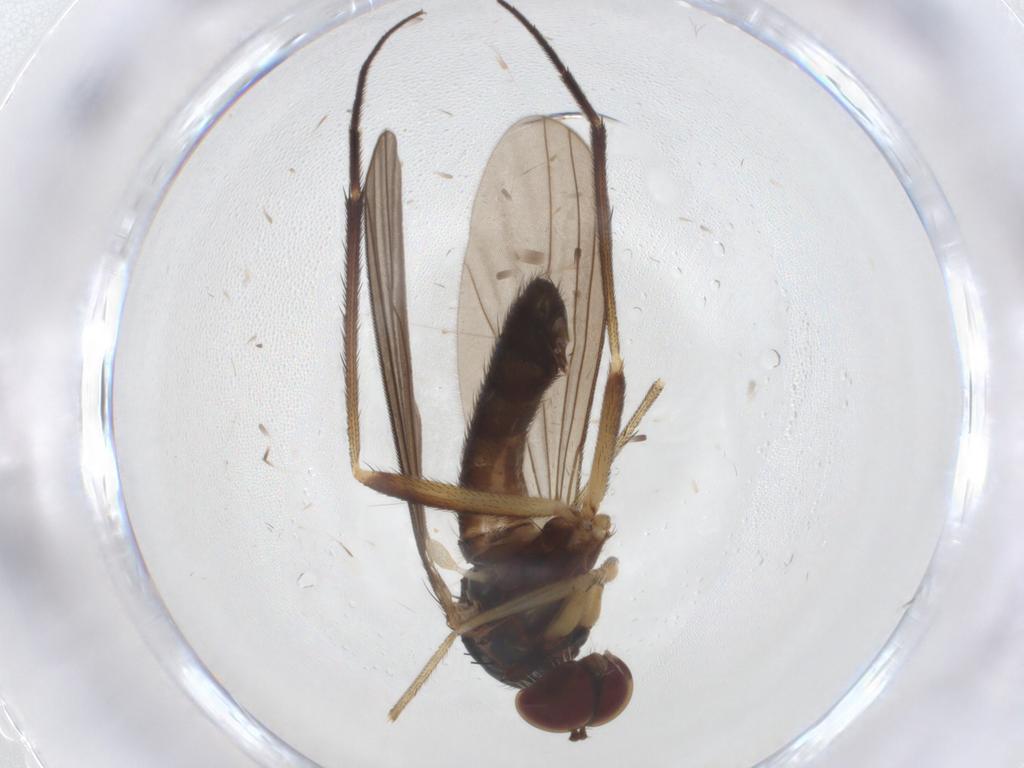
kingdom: Animalia
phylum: Arthropoda
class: Insecta
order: Diptera
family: Dolichopodidae
